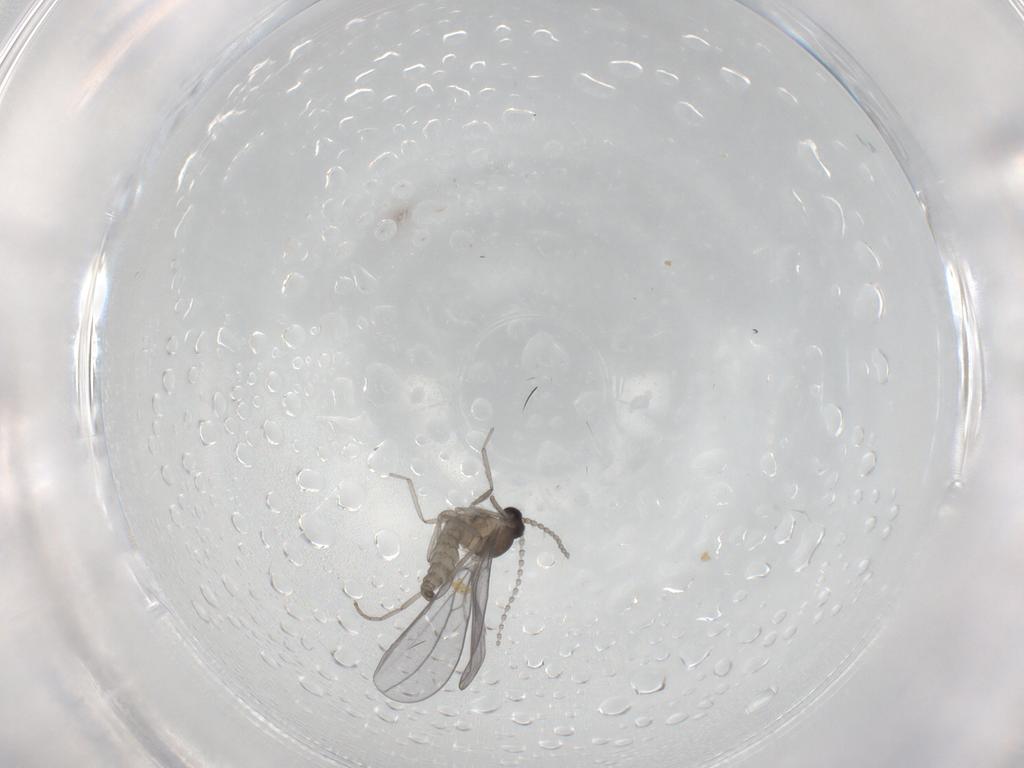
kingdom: Animalia
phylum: Arthropoda
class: Insecta
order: Diptera
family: Cecidomyiidae
